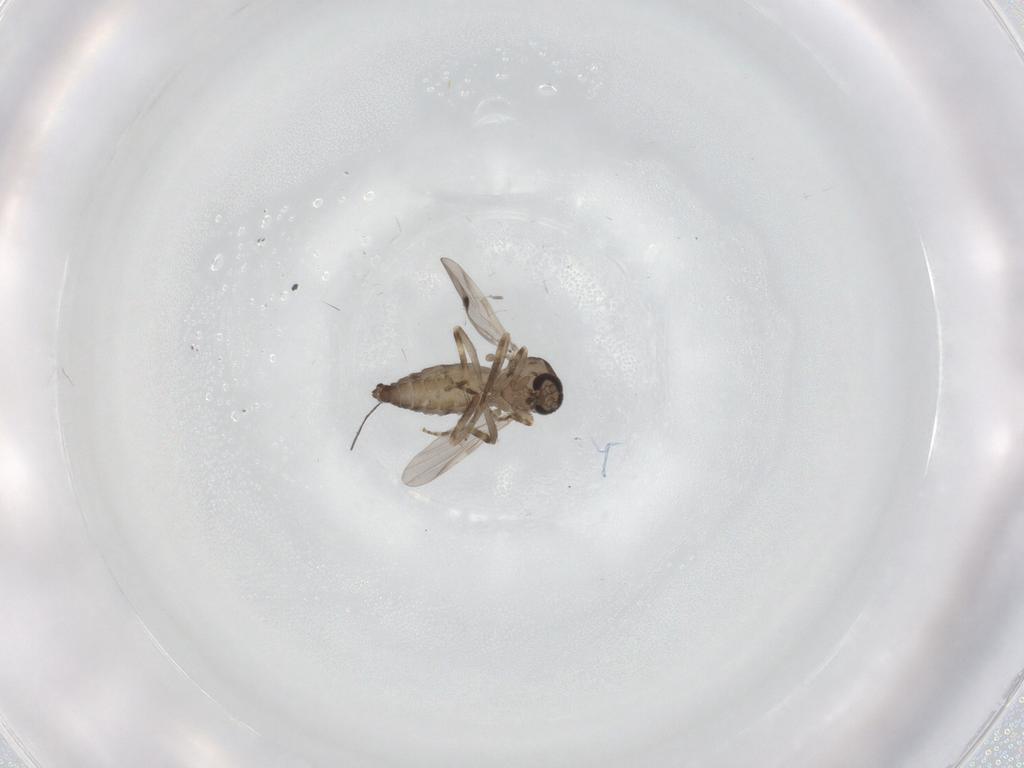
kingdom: Animalia
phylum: Arthropoda
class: Insecta
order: Diptera
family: Ceratopogonidae
